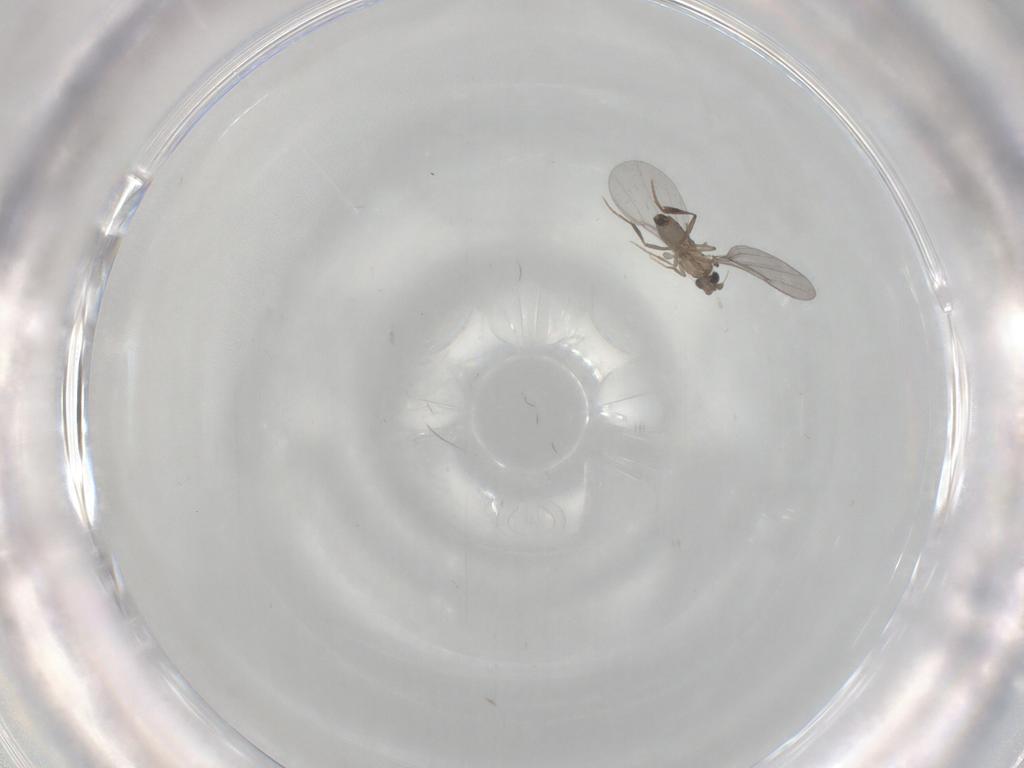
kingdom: Animalia
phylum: Arthropoda
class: Insecta
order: Diptera
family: Phoridae
